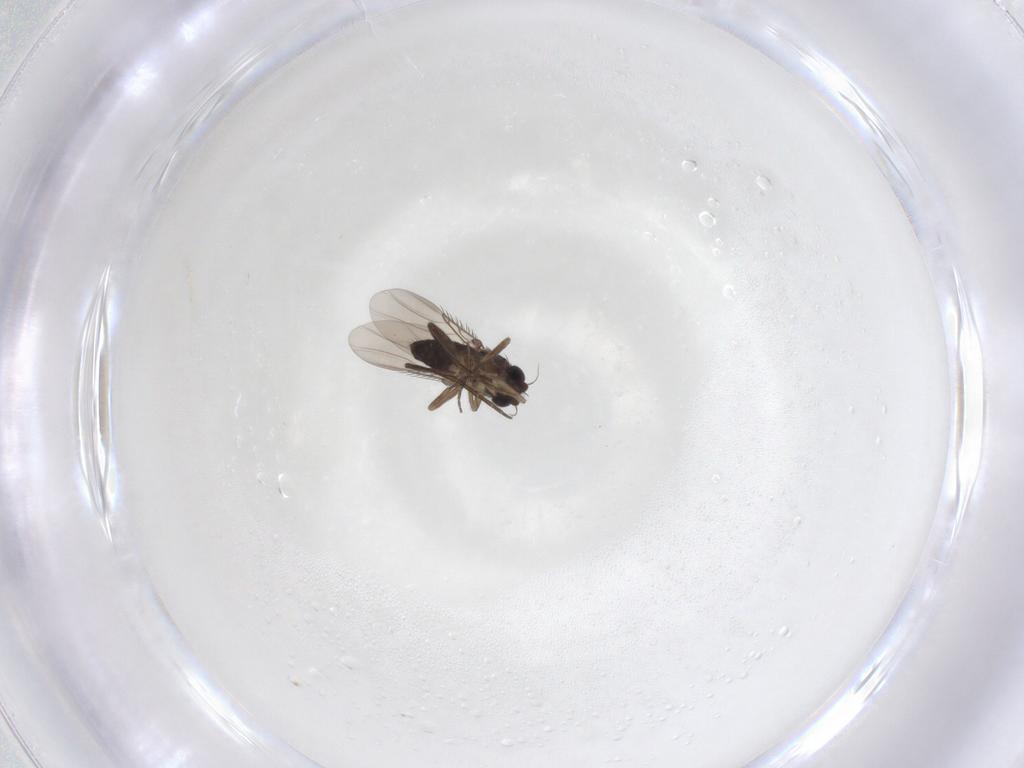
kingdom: Animalia
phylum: Arthropoda
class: Insecta
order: Diptera
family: Phoridae
